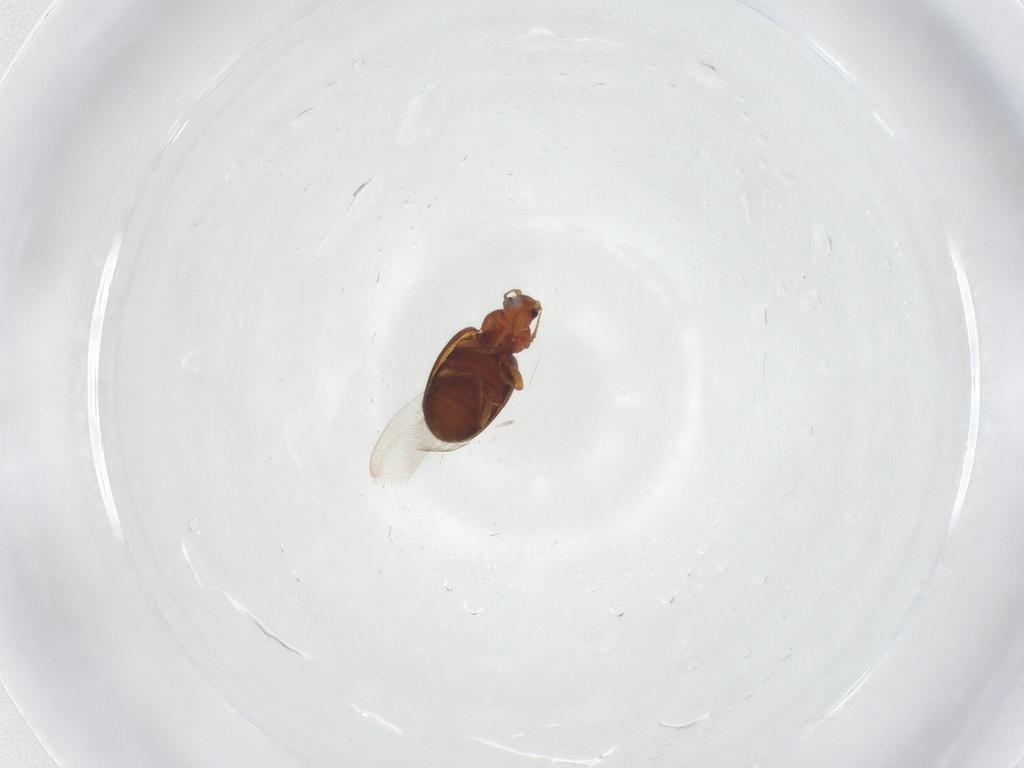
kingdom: Animalia
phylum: Arthropoda
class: Insecta
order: Coleoptera
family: Latridiidae
